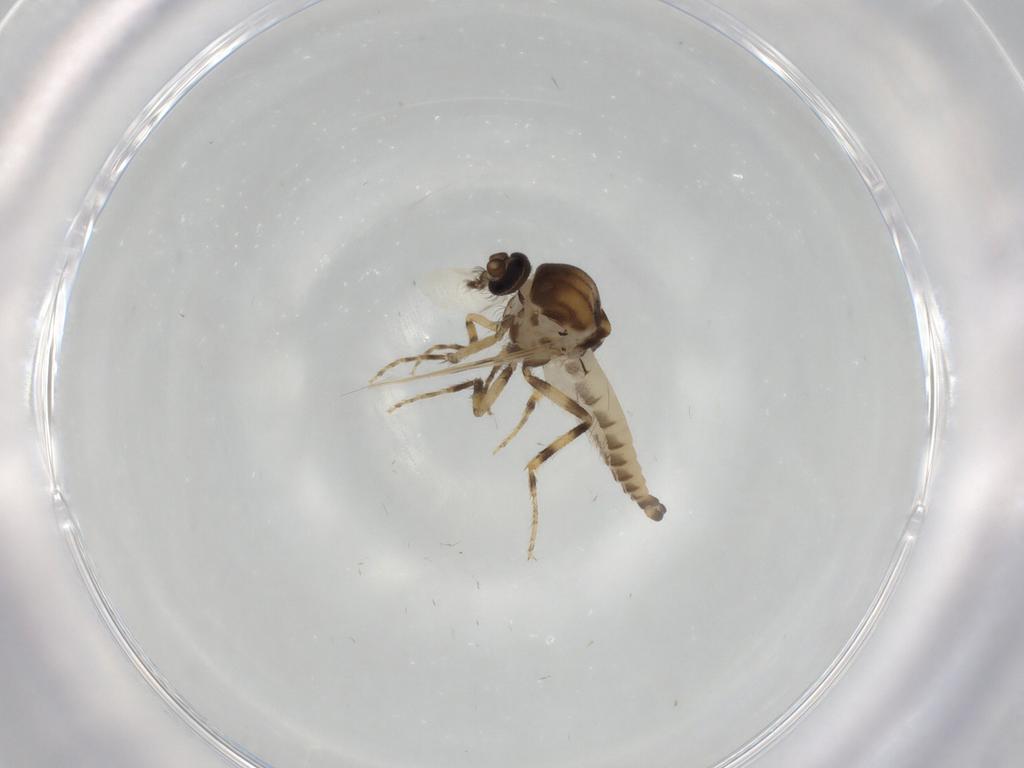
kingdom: Animalia
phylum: Arthropoda
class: Insecta
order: Diptera
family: Ceratopogonidae
